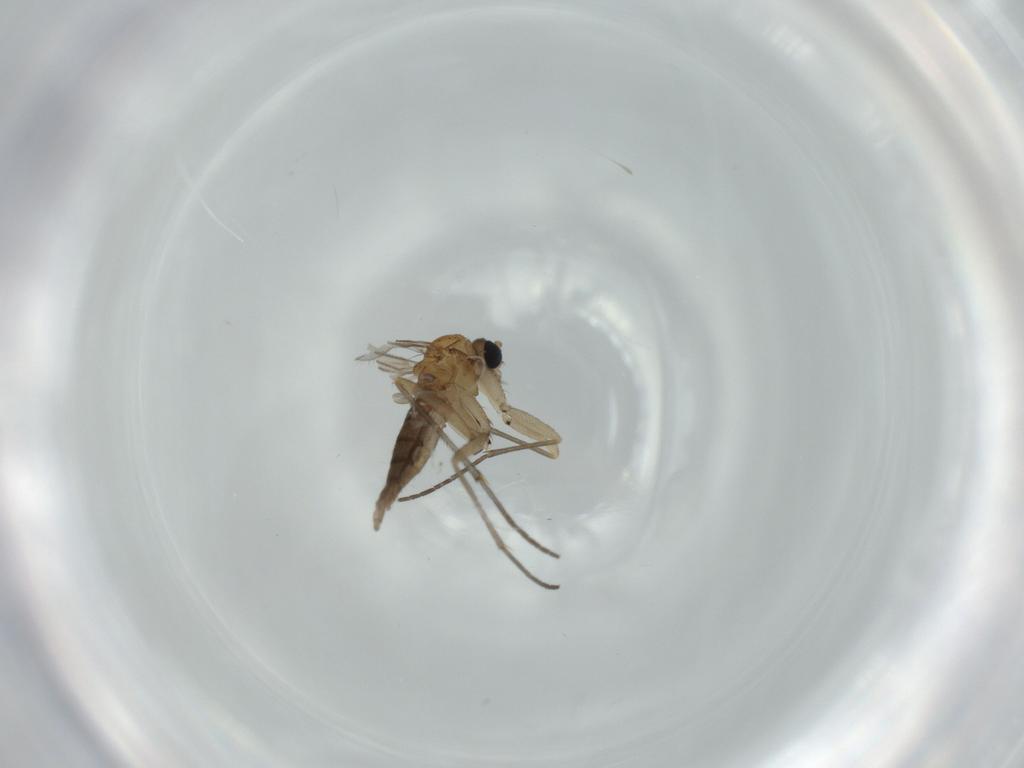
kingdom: Animalia
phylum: Arthropoda
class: Insecta
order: Diptera
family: Sciaridae
